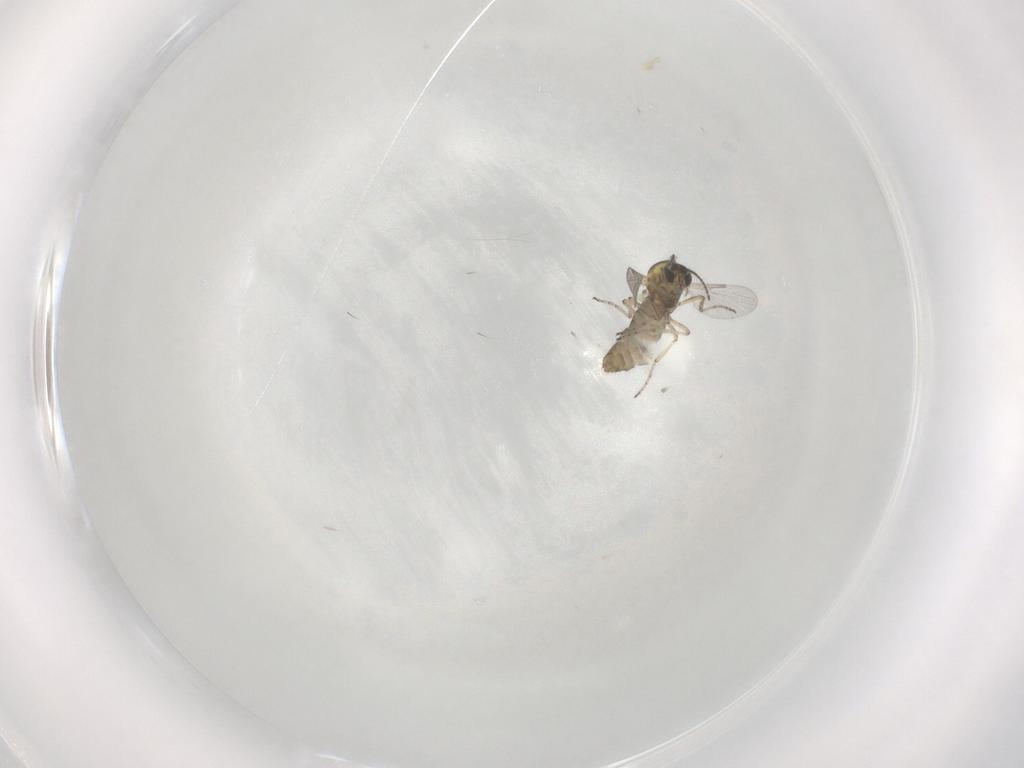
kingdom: Animalia
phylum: Arthropoda
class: Insecta
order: Diptera
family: Ceratopogonidae
